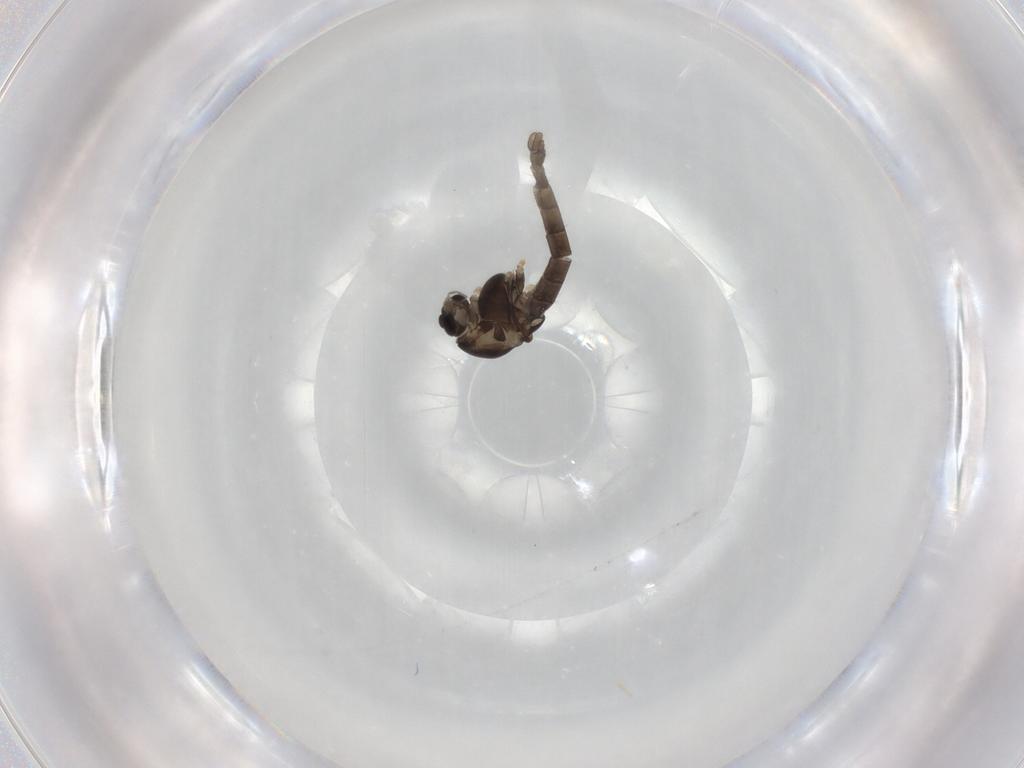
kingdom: Animalia
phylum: Arthropoda
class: Insecta
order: Diptera
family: Chironomidae
